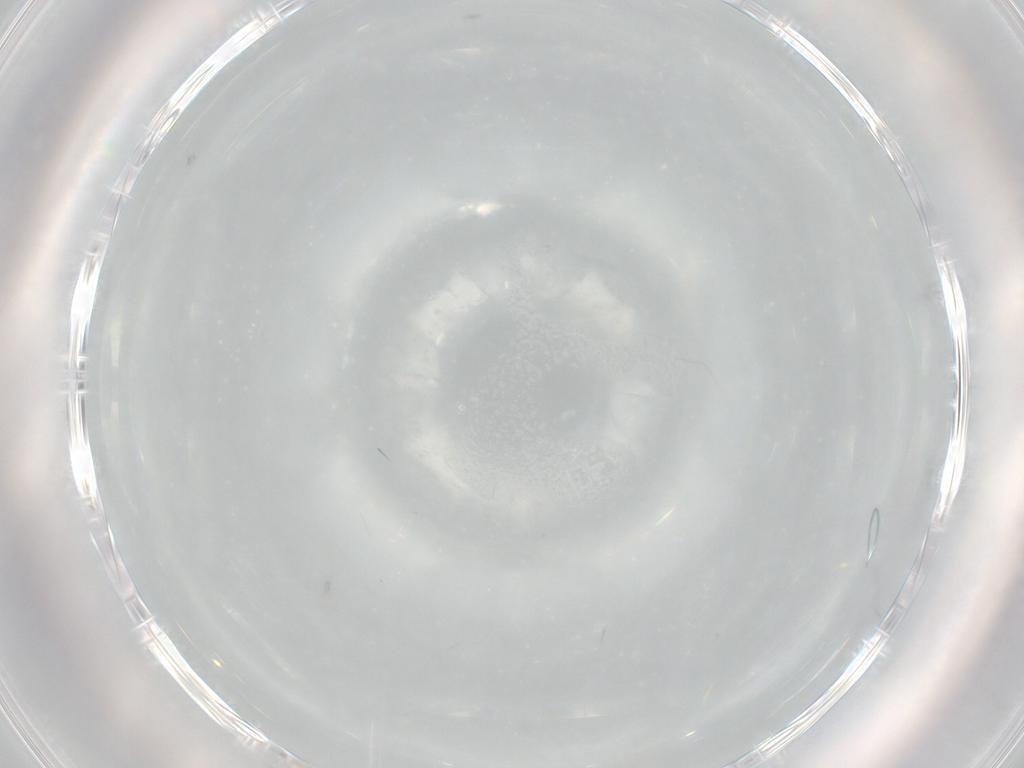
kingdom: Animalia
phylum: Arthropoda
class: Collembola
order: Entomobryomorpha
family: Entomobryidae
